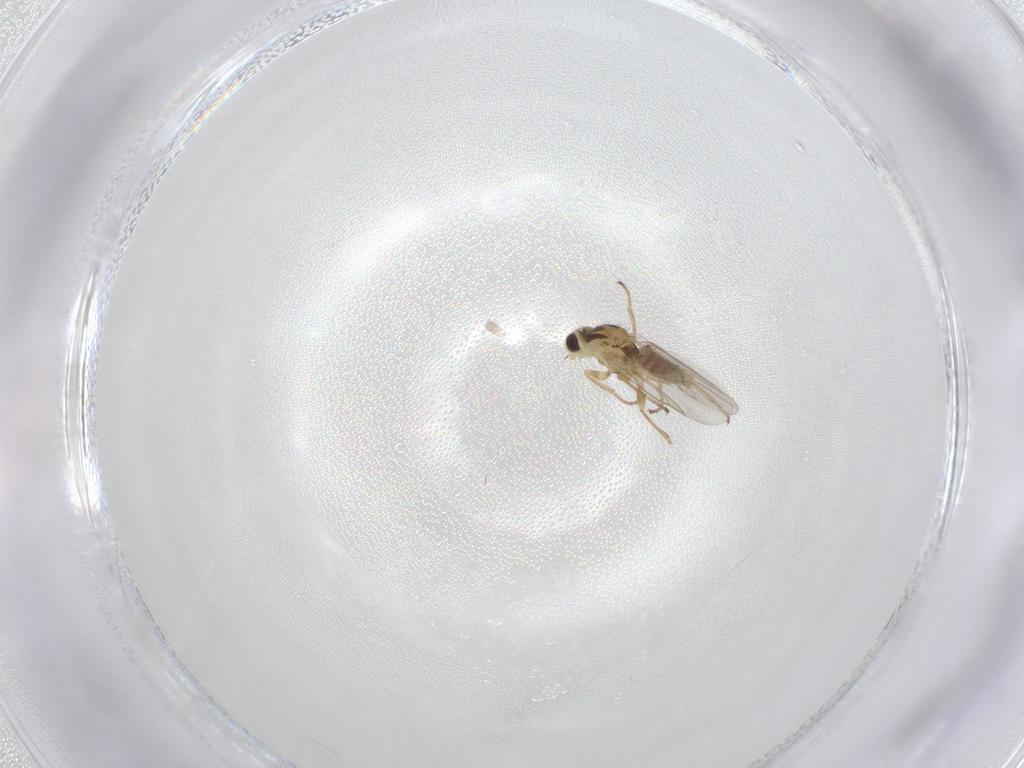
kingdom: Animalia
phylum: Arthropoda
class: Insecta
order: Diptera
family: Agromyzidae
